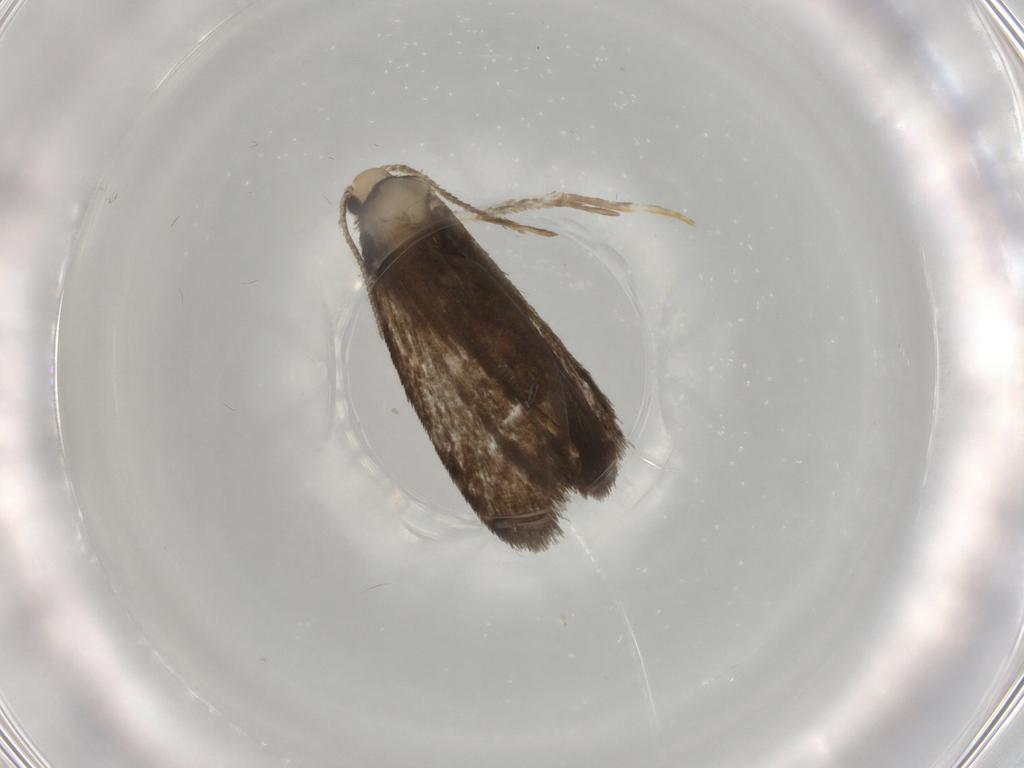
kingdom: Animalia
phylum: Arthropoda
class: Insecta
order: Lepidoptera
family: Psychidae
